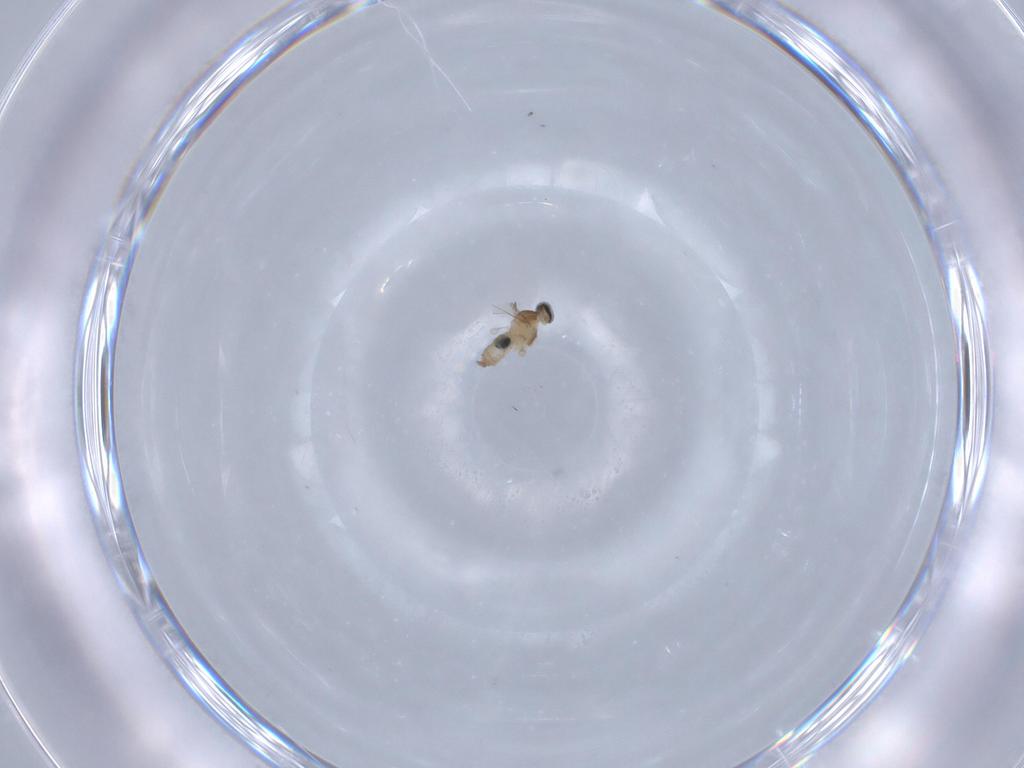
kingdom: Animalia
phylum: Arthropoda
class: Insecta
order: Diptera
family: Cecidomyiidae
